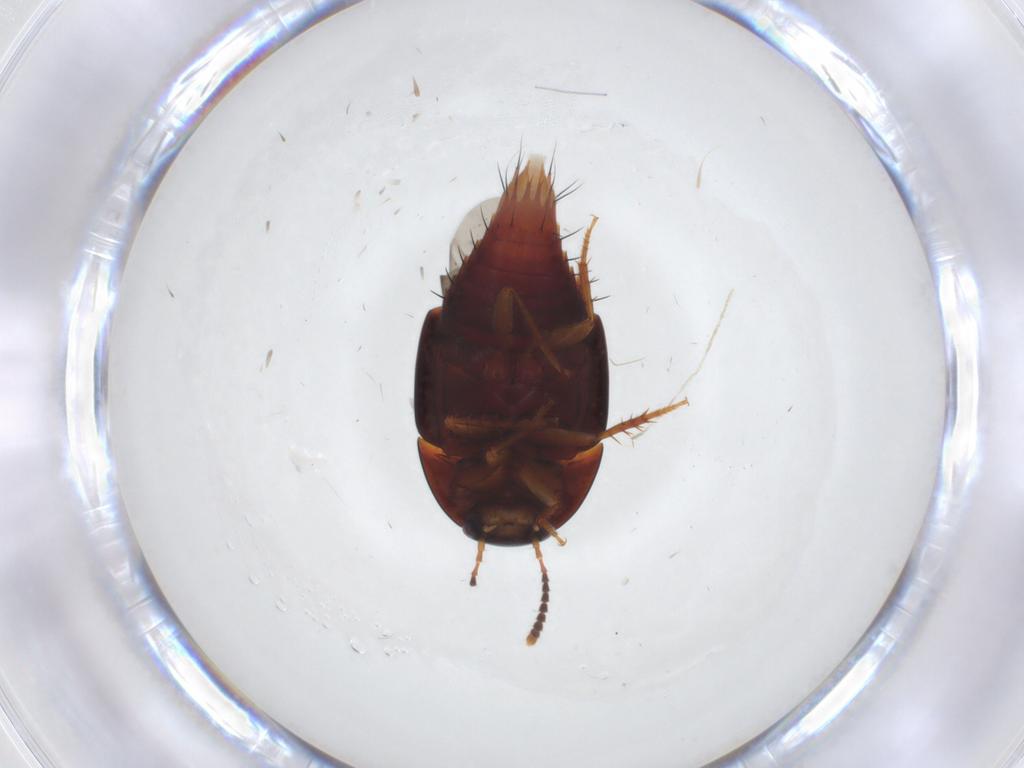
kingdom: Animalia
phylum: Arthropoda
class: Insecta
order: Coleoptera
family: Staphylinidae
